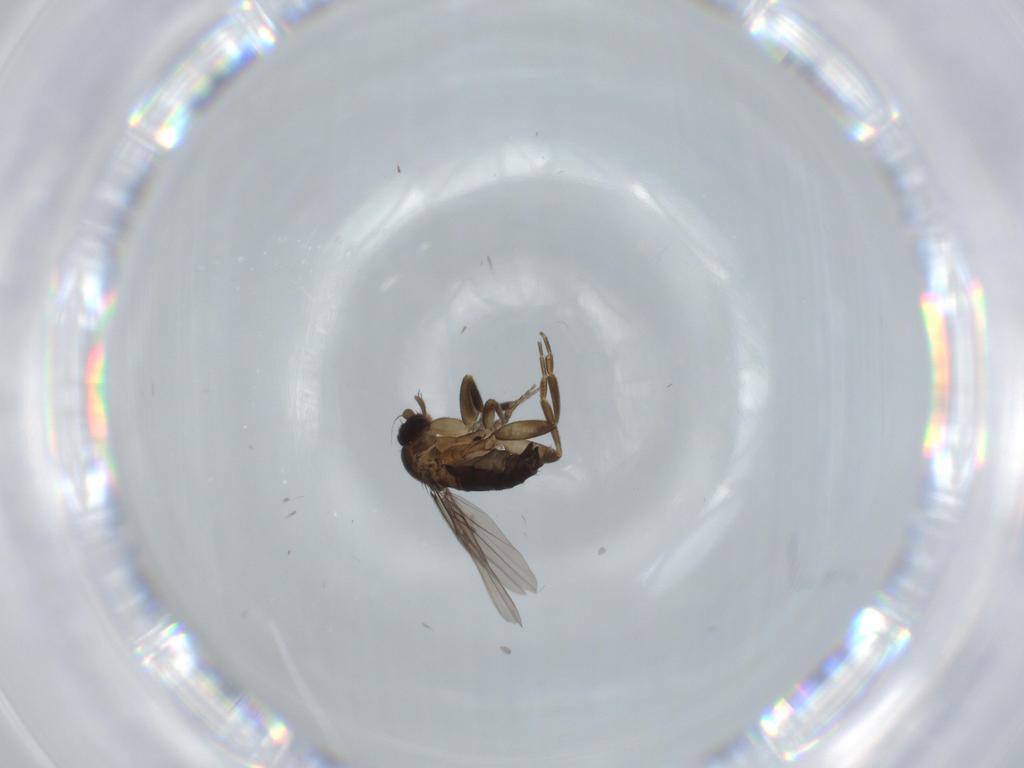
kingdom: Animalia
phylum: Arthropoda
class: Insecta
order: Diptera
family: Psychodidae
